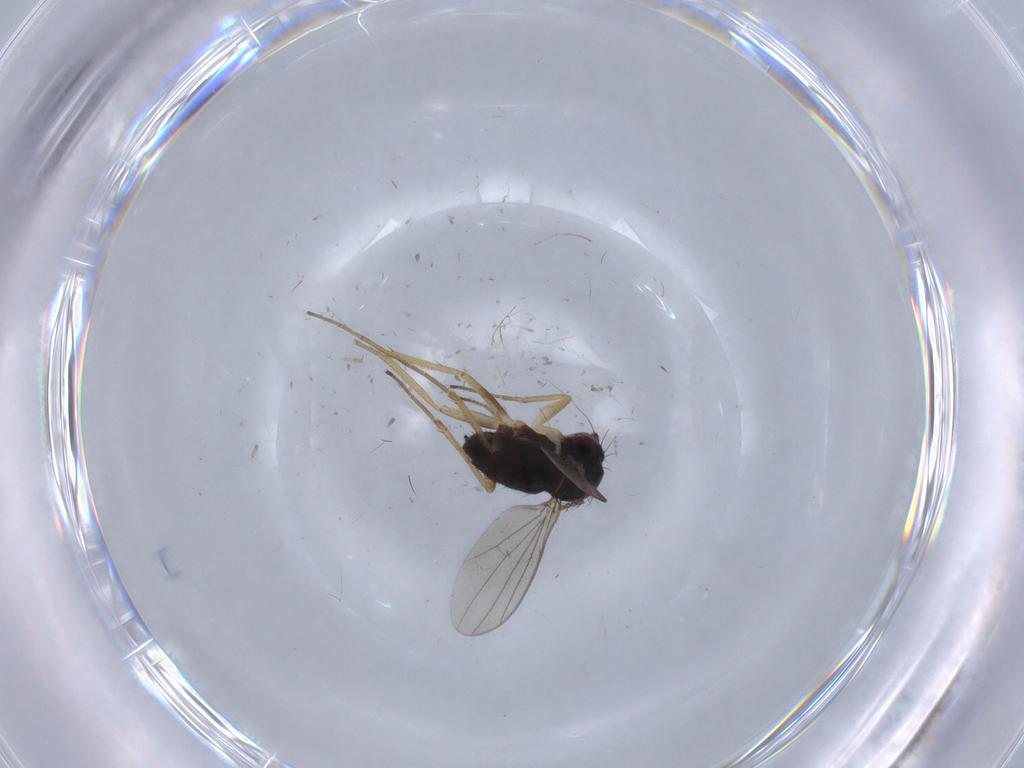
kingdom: Animalia
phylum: Arthropoda
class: Insecta
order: Diptera
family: Dolichopodidae
